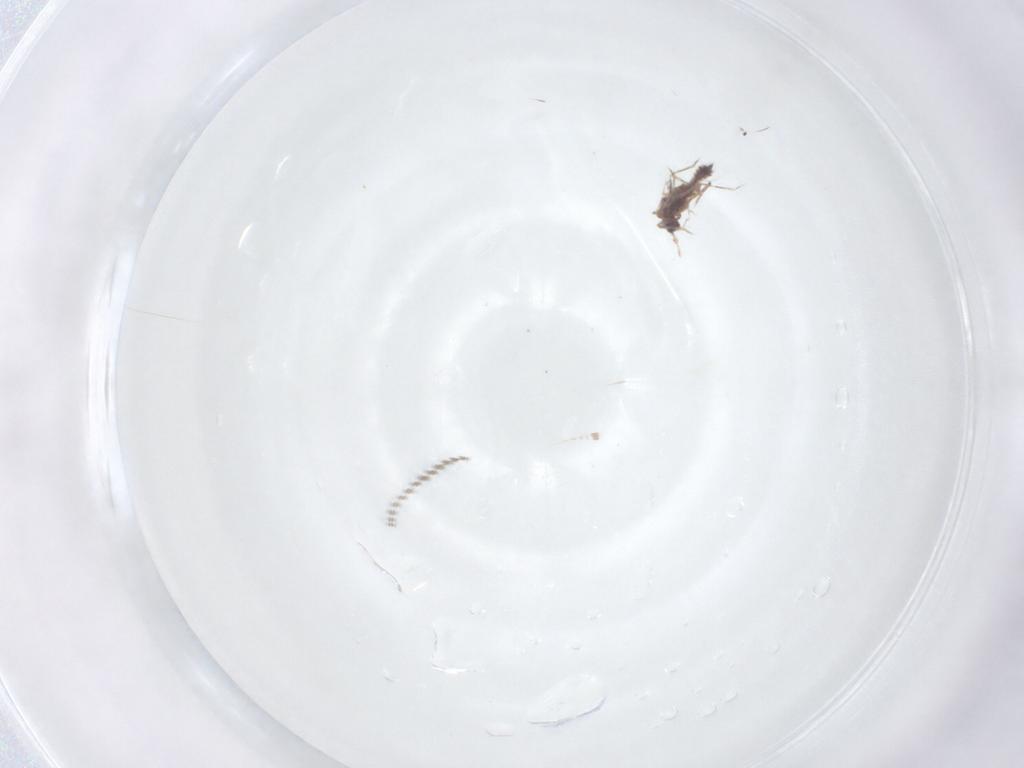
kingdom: Animalia
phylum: Arthropoda
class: Insecta
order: Diptera
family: Cecidomyiidae
